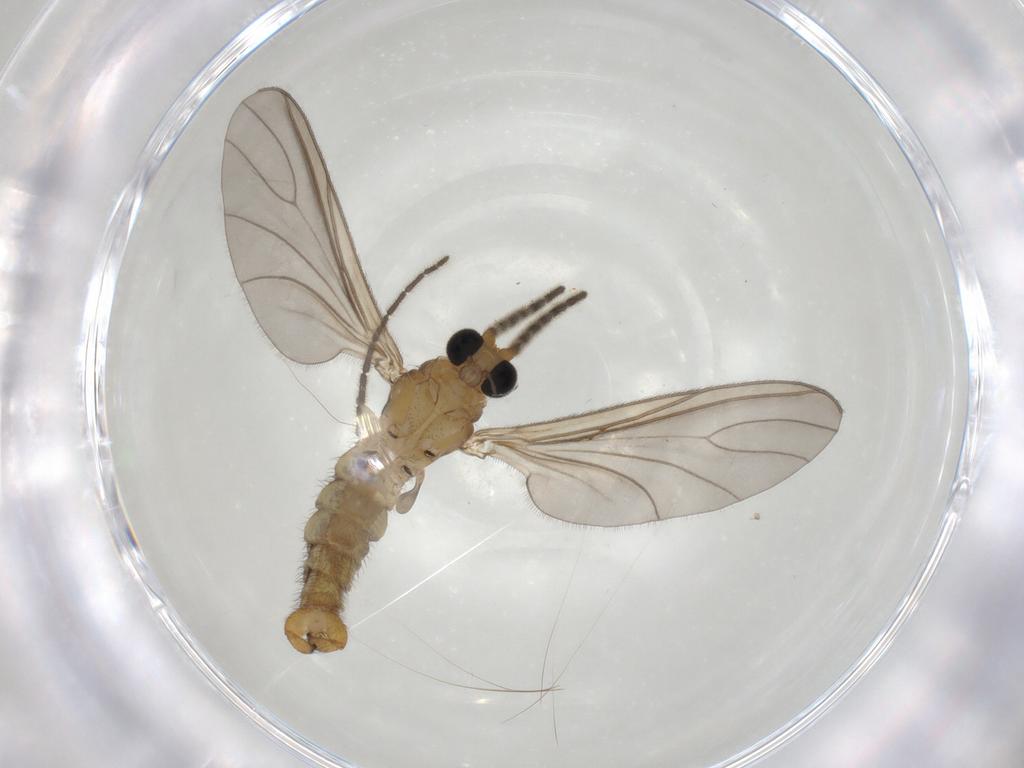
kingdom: Animalia
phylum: Arthropoda
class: Insecta
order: Diptera
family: Sciaridae
